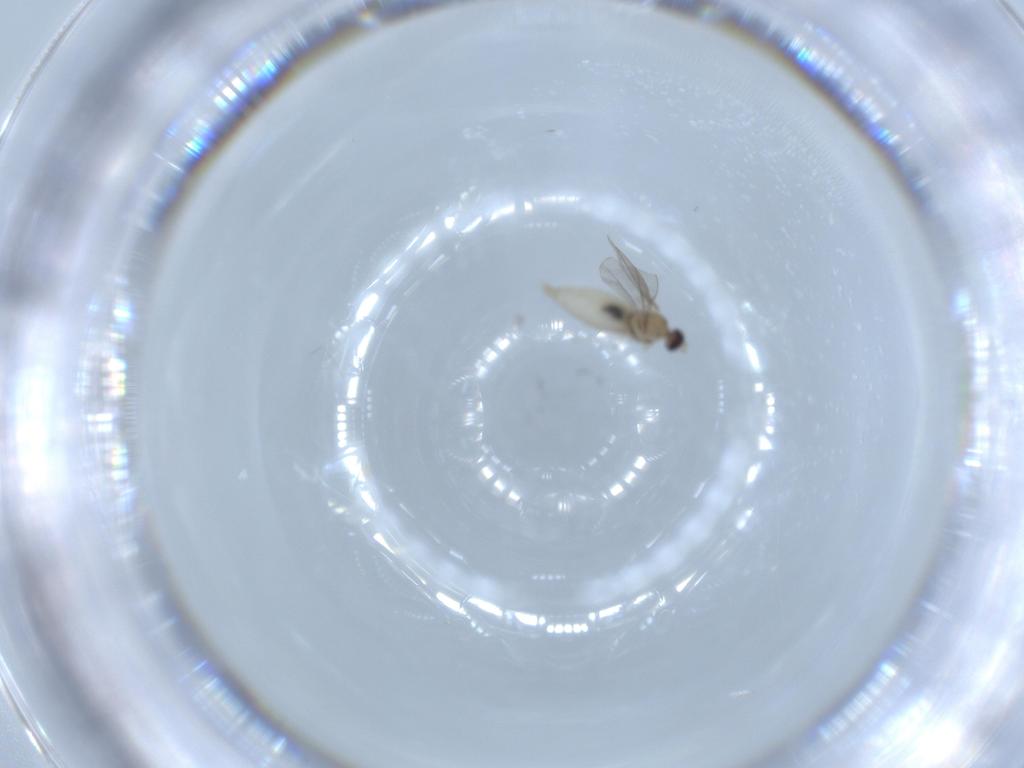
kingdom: Animalia
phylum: Arthropoda
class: Insecta
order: Diptera
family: Cecidomyiidae
